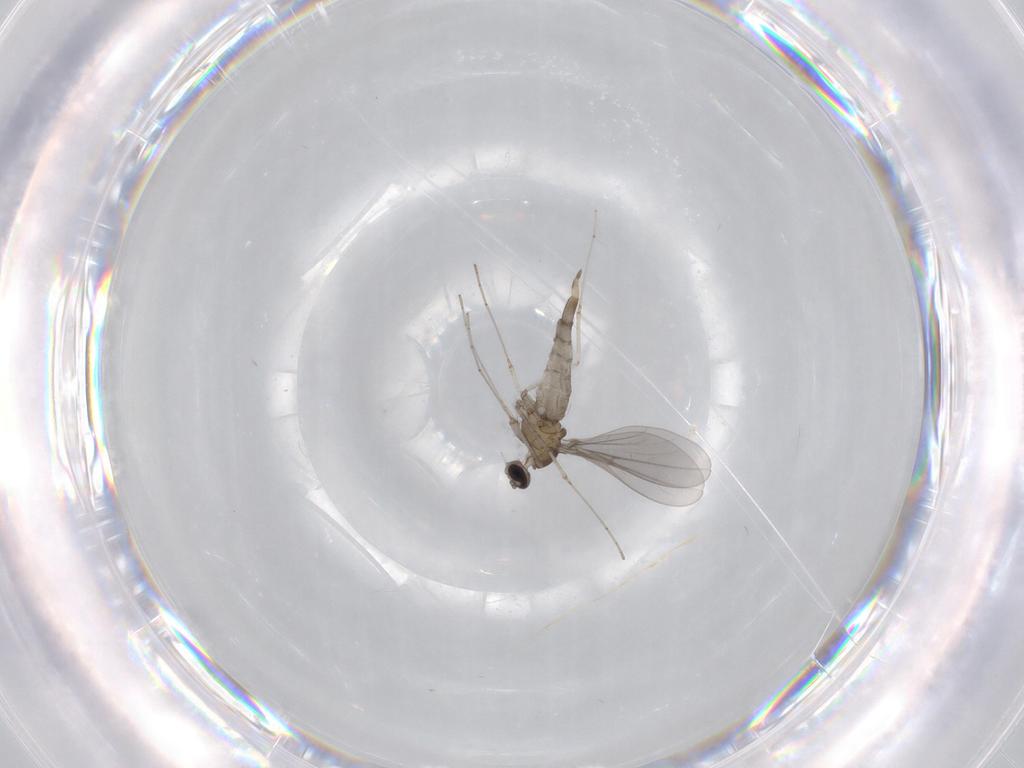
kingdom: Animalia
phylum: Arthropoda
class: Insecta
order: Diptera
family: Cecidomyiidae
